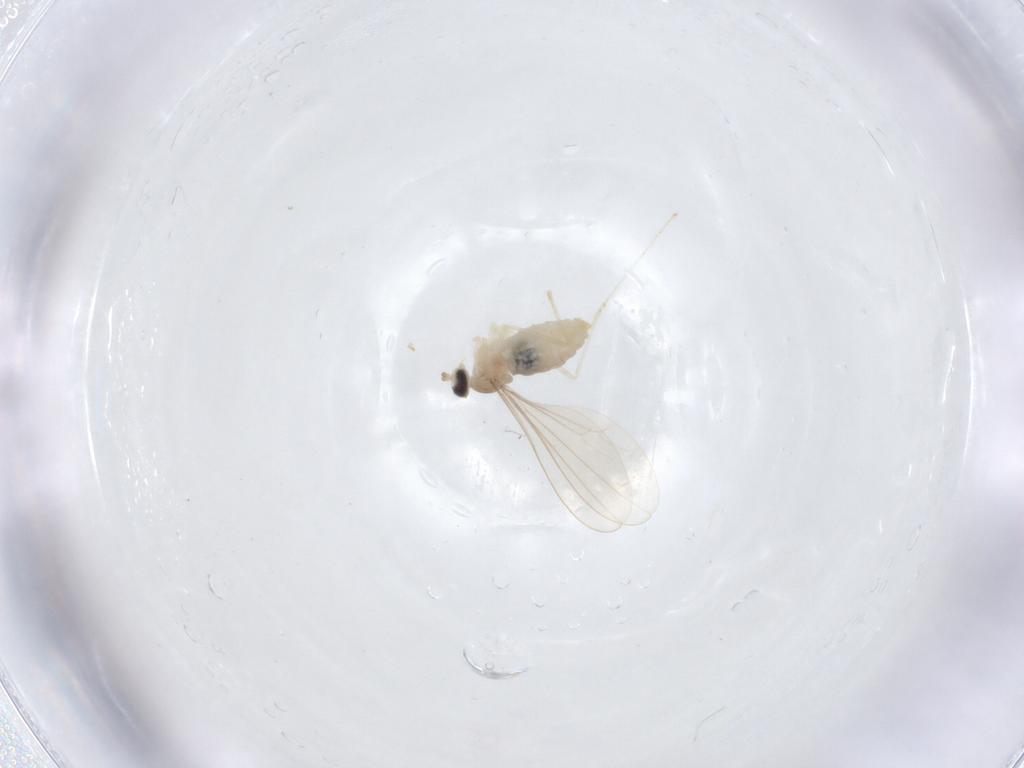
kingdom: Animalia
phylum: Arthropoda
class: Insecta
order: Diptera
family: Cecidomyiidae
